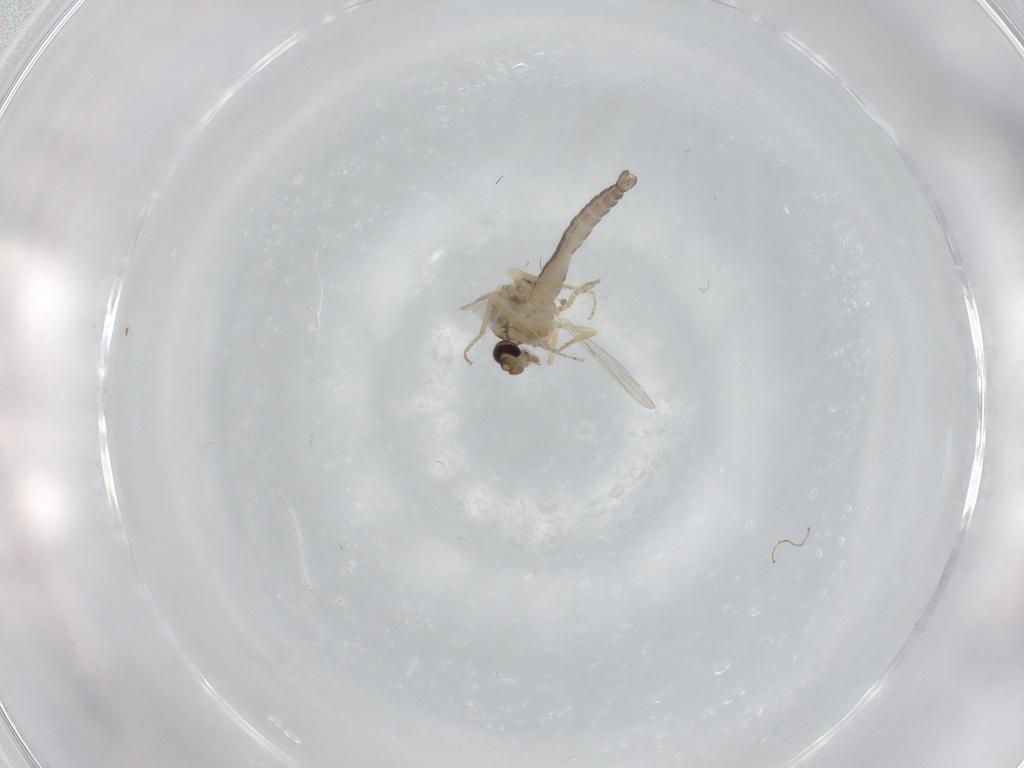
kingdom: Animalia
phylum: Arthropoda
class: Insecta
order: Diptera
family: Ceratopogonidae
